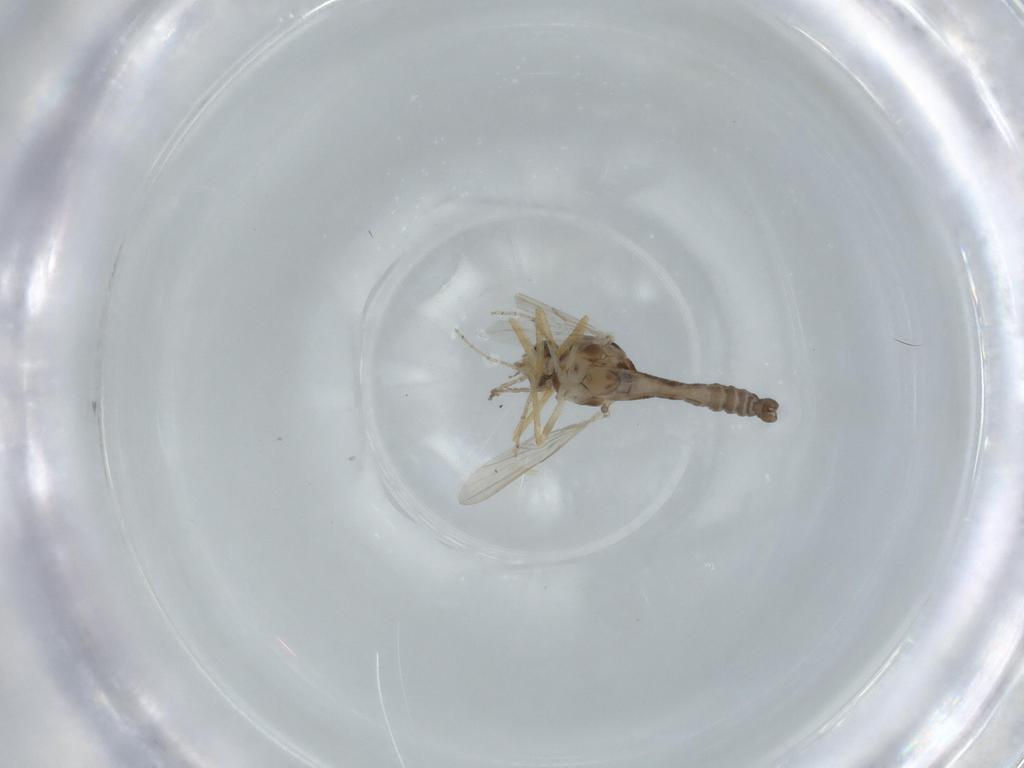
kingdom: Animalia
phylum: Arthropoda
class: Insecta
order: Diptera
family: Ceratopogonidae
